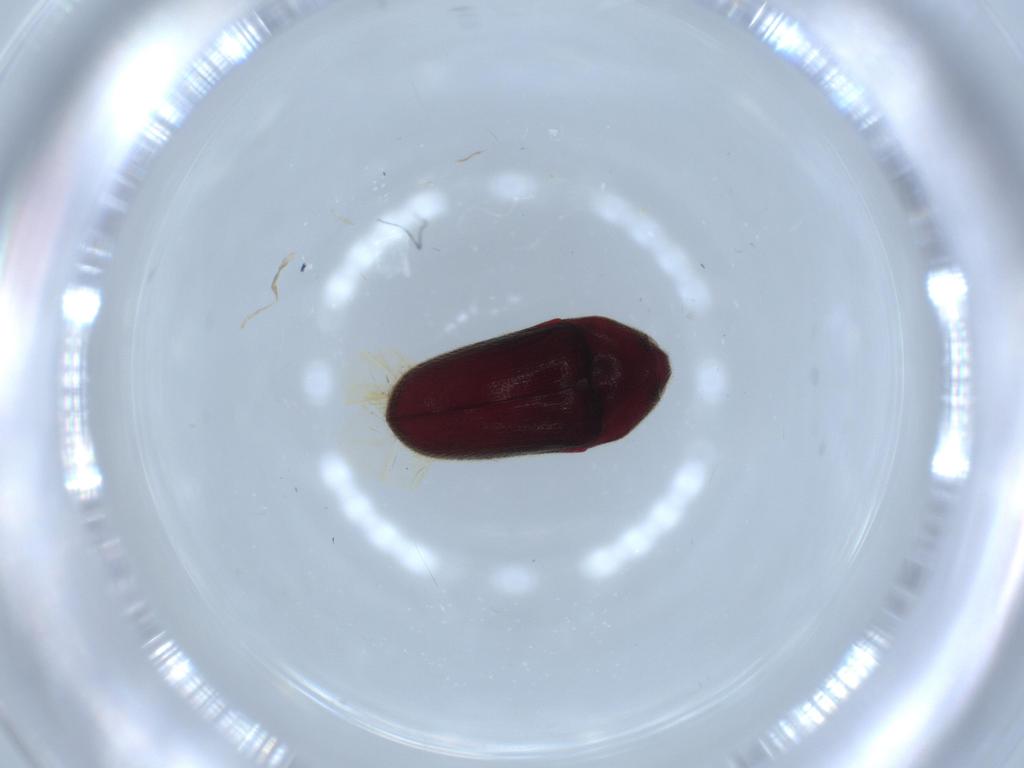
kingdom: Animalia
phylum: Arthropoda
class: Insecta
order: Coleoptera
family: Throscidae
